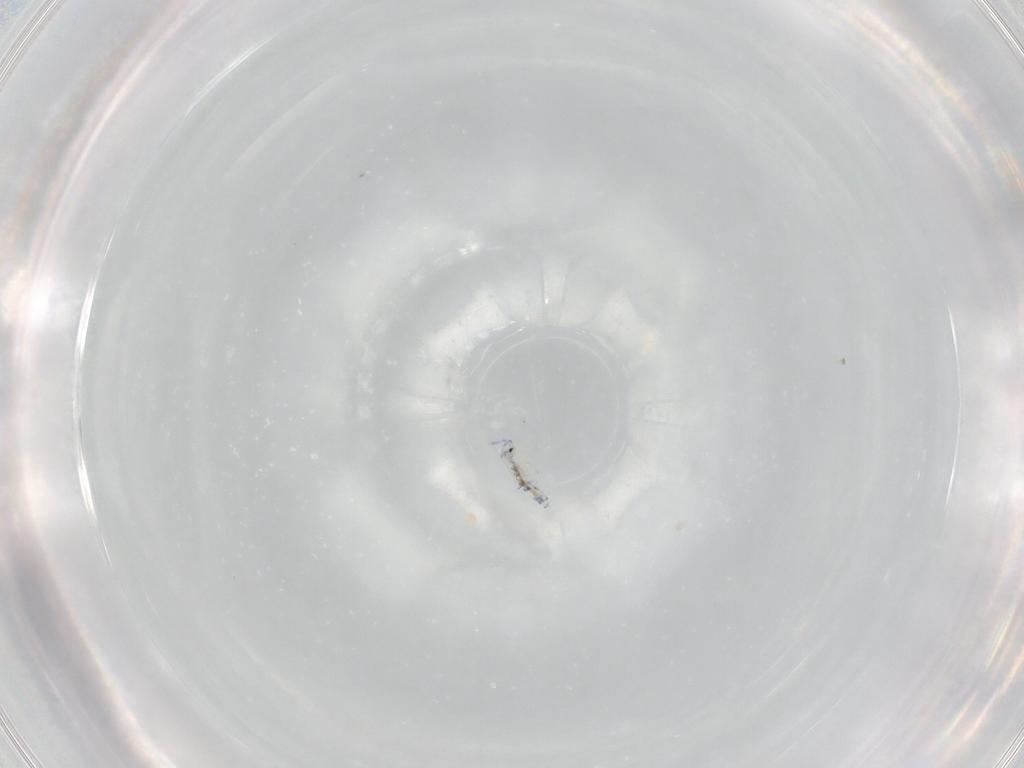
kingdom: Animalia
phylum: Arthropoda
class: Collembola
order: Entomobryomorpha
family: Entomobryidae
